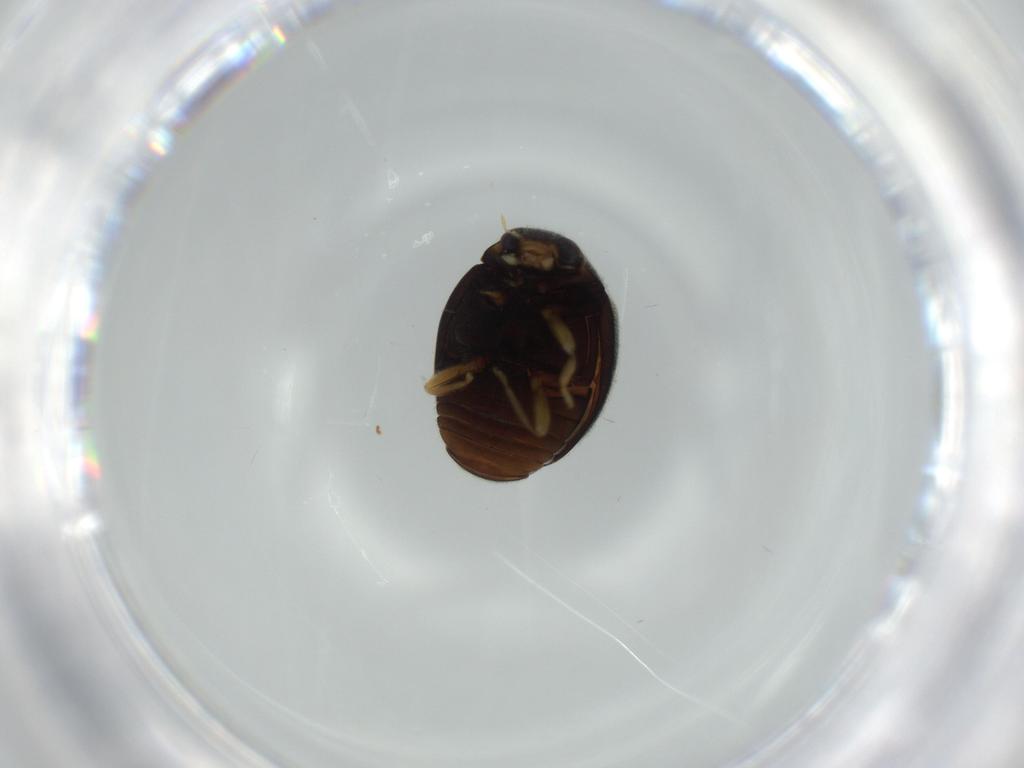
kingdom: Animalia
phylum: Arthropoda
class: Insecta
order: Coleoptera
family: Coccinellidae
